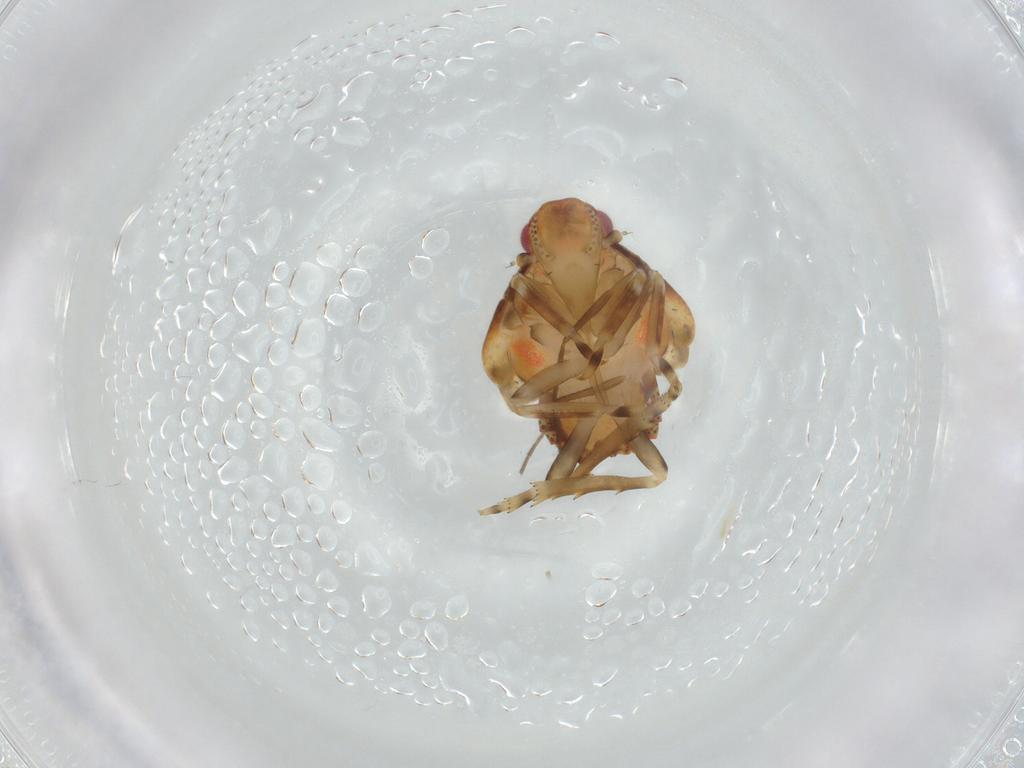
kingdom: Animalia
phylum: Arthropoda
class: Insecta
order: Hemiptera
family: Flatidae
